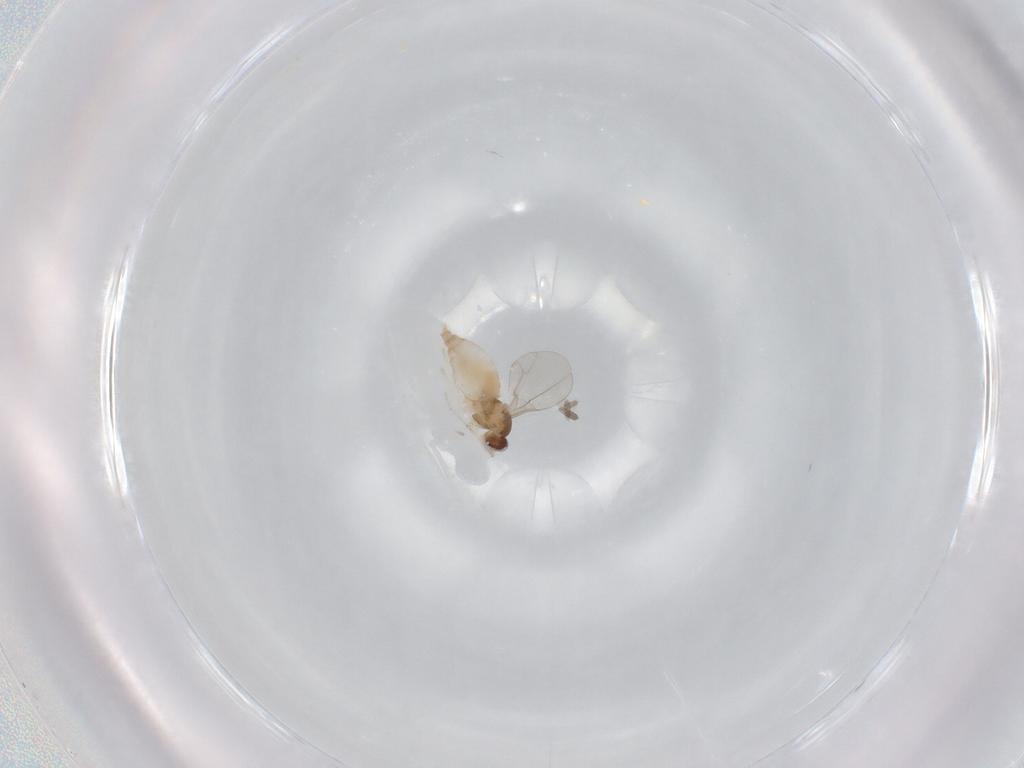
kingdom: Animalia
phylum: Arthropoda
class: Insecta
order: Diptera
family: Cecidomyiidae
